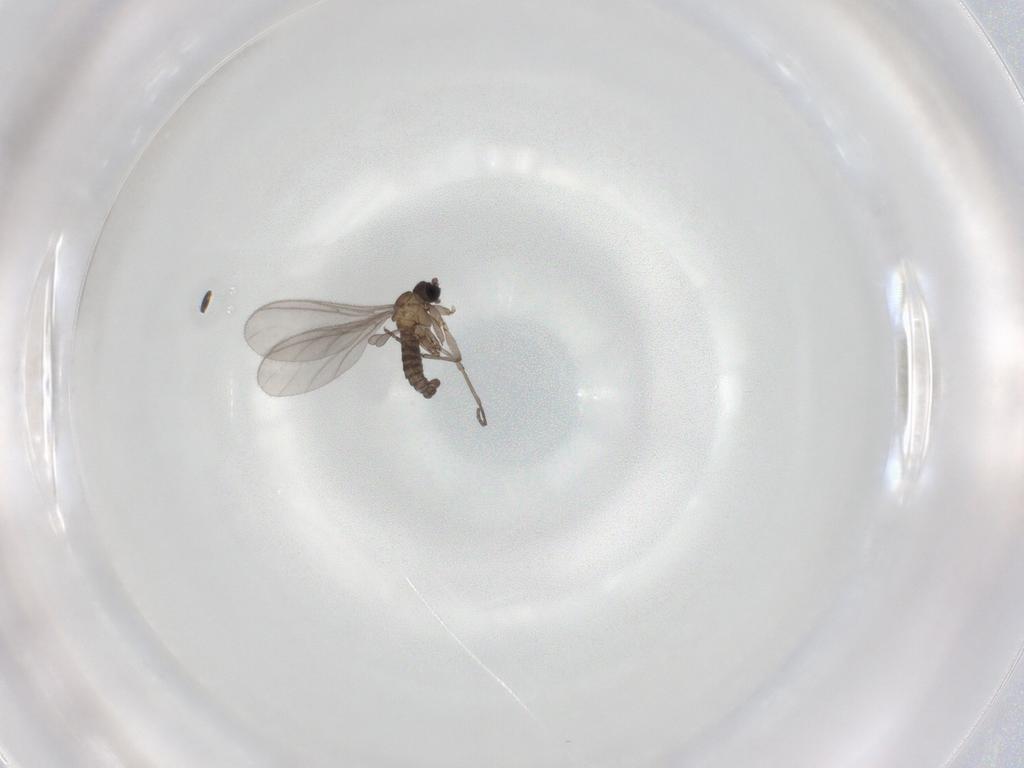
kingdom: Animalia
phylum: Arthropoda
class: Insecta
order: Diptera
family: Sciaridae
